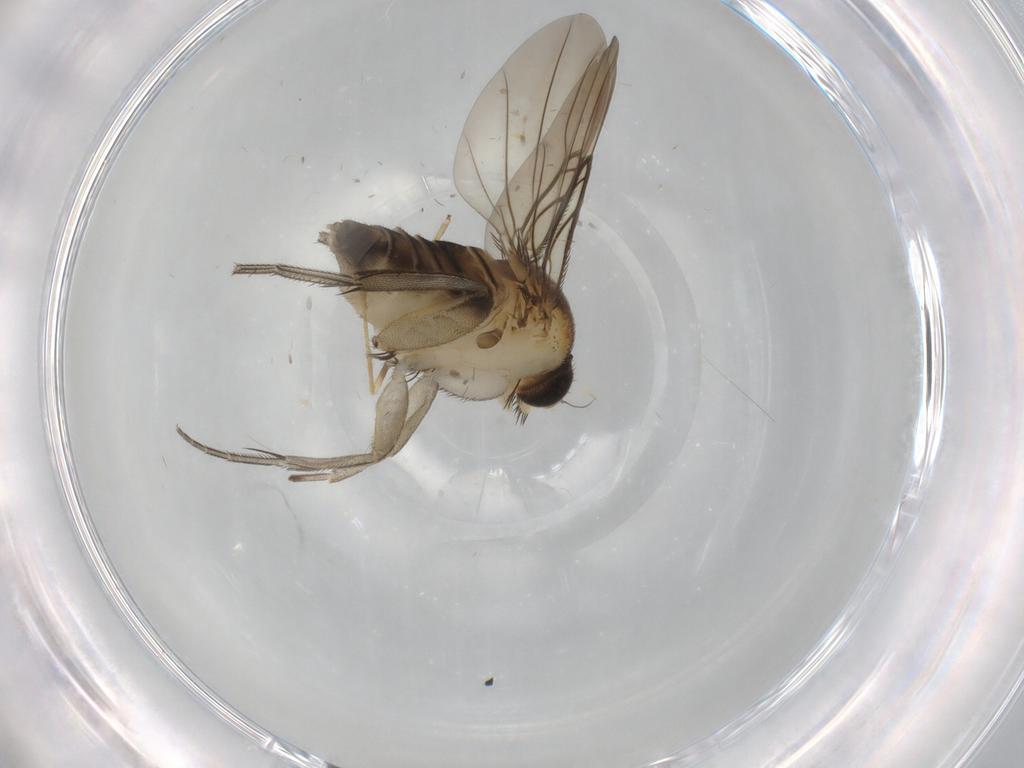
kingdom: Animalia
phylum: Arthropoda
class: Insecta
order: Diptera
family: Chironomidae
